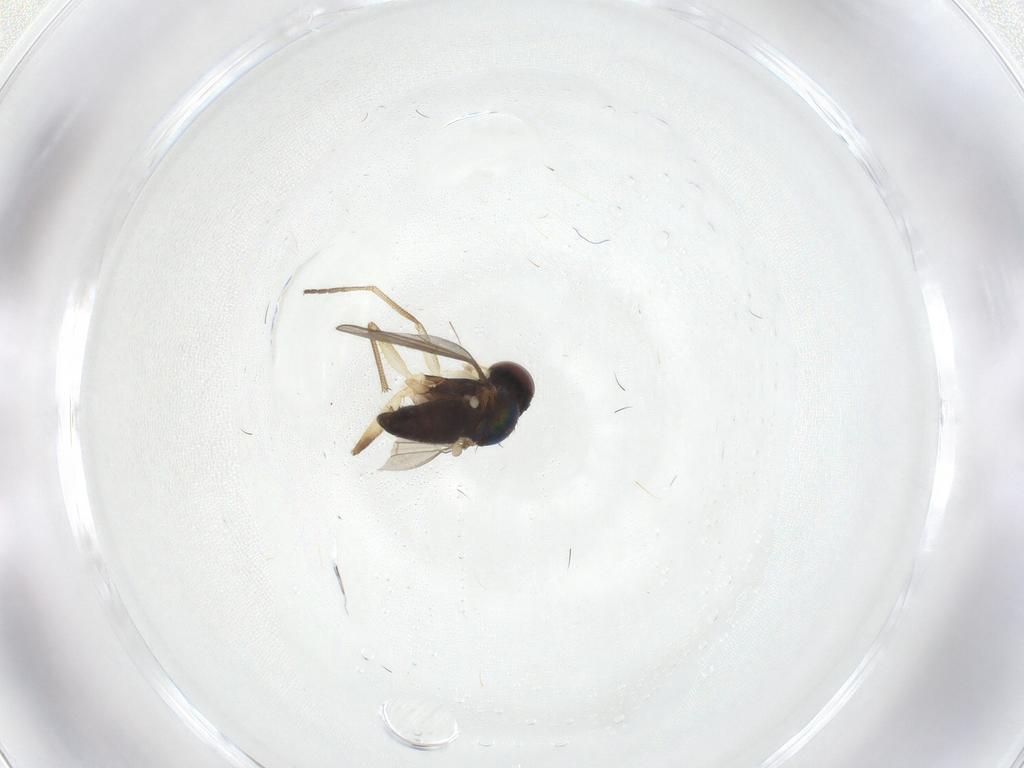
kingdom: Animalia
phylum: Arthropoda
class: Insecta
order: Diptera
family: Dolichopodidae
